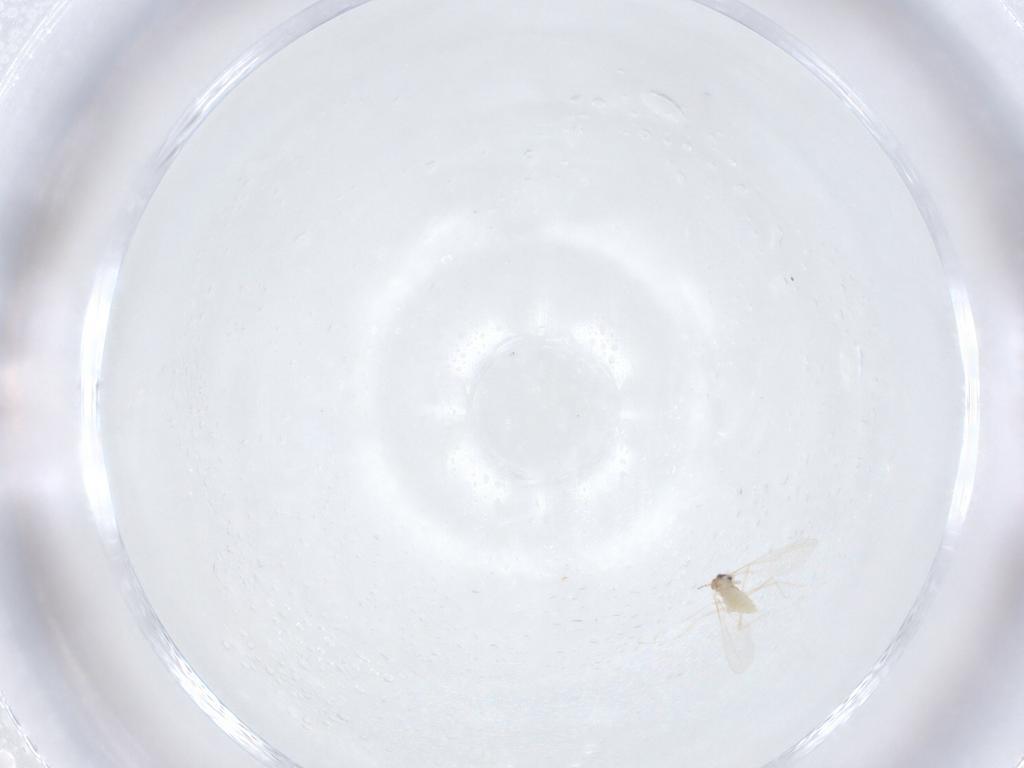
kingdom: Animalia
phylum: Arthropoda
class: Insecta
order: Diptera
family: Cecidomyiidae
